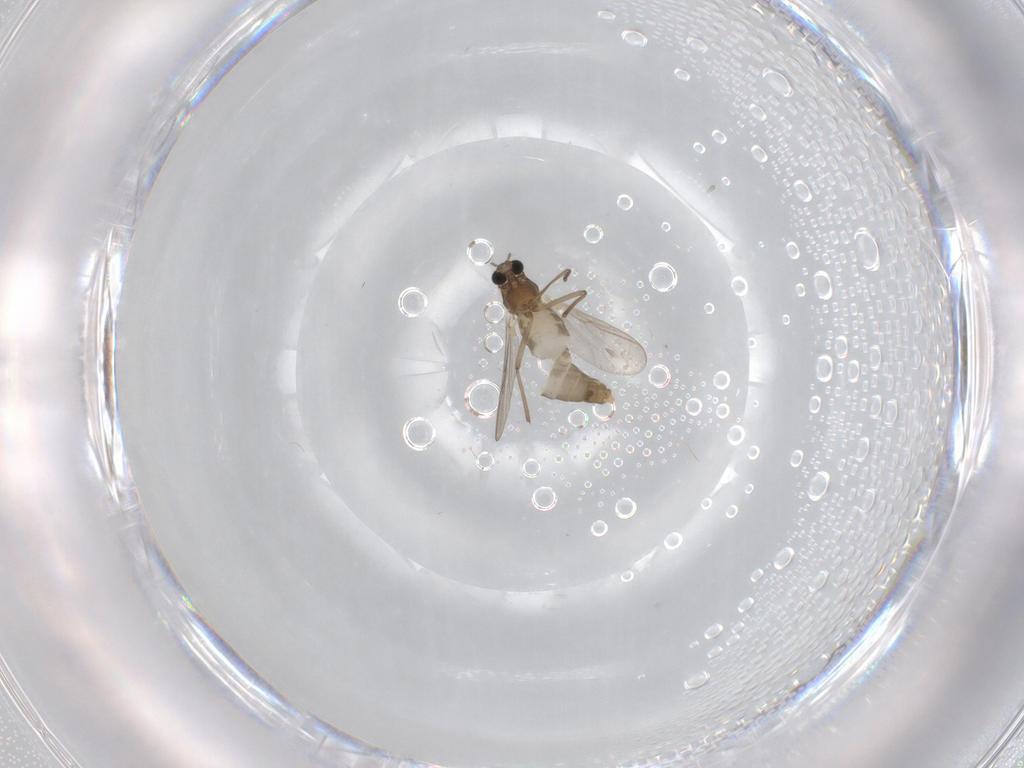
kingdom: Animalia
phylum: Arthropoda
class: Insecta
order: Diptera
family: Chironomidae
